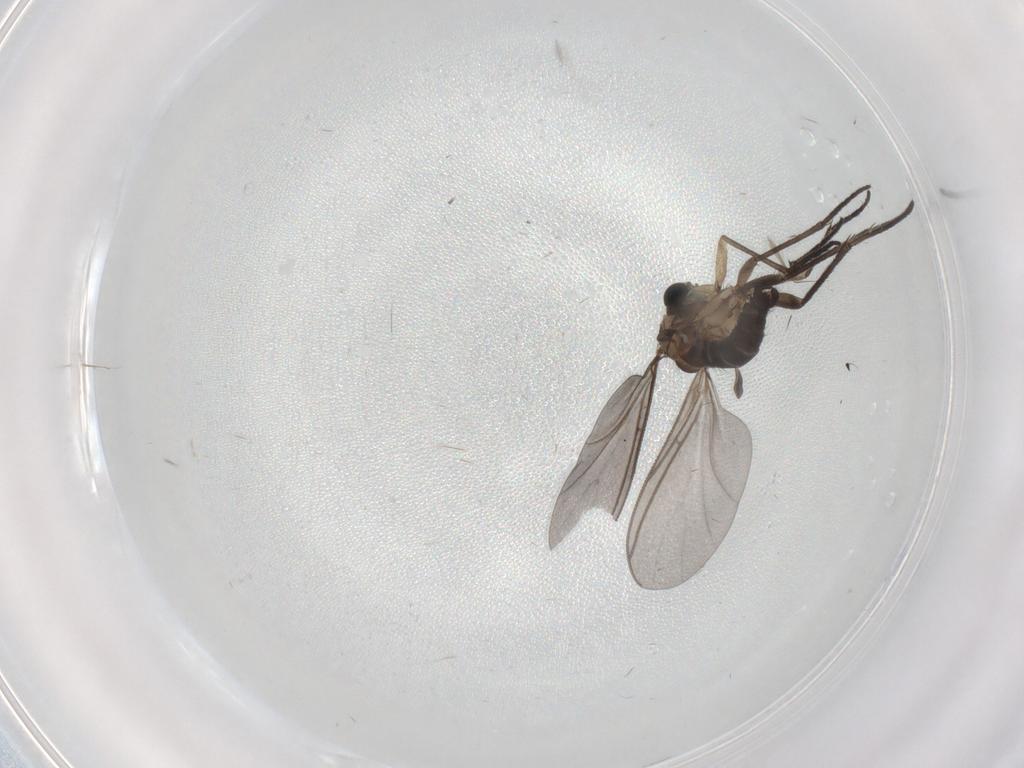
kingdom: Animalia
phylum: Arthropoda
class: Insecta
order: Diptera
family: Sciaridae
